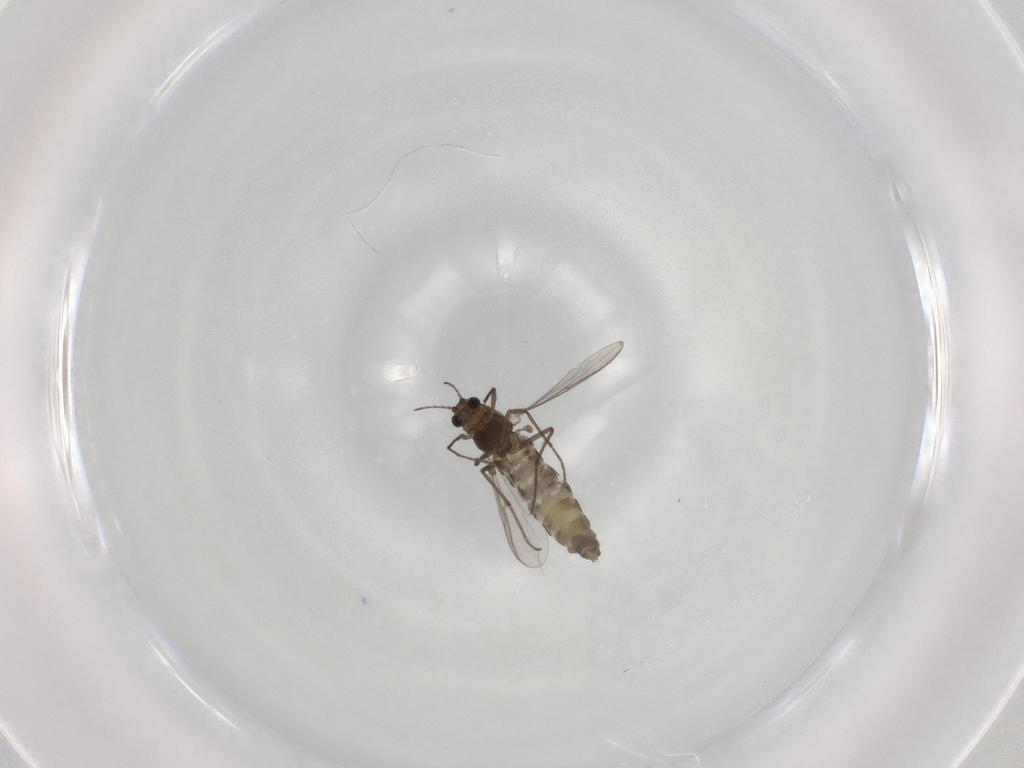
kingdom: Animalia
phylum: Arthropoda
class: Insecta
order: Diptera
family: Chironomidae
